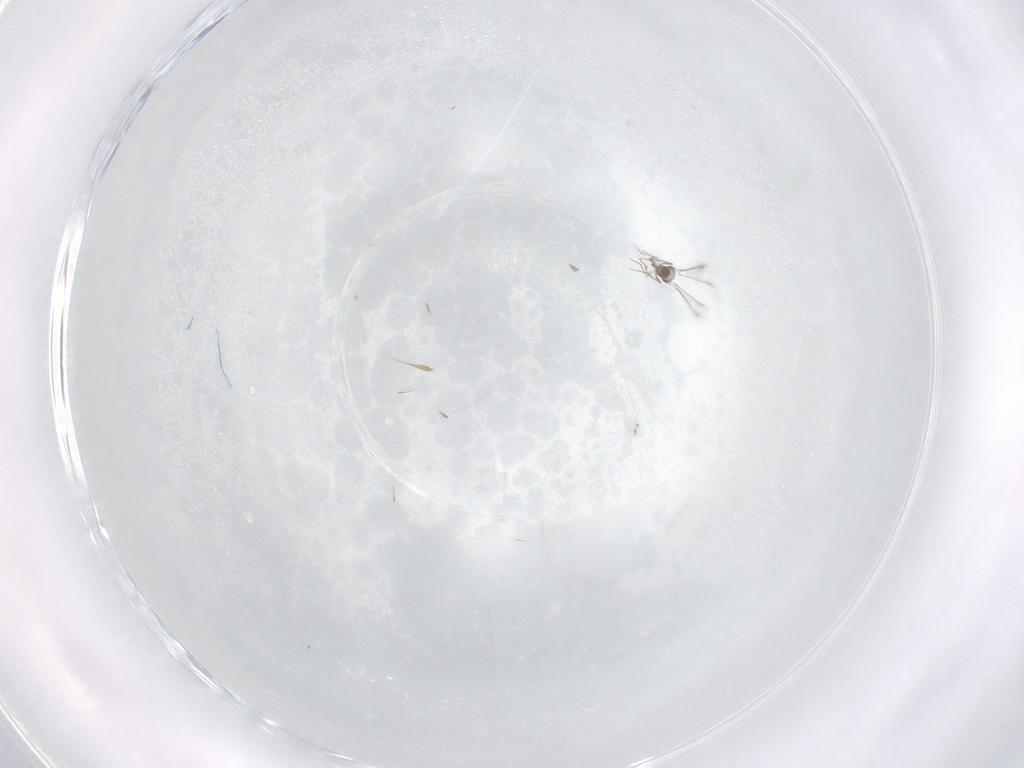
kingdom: Animalia
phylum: Arthropoda
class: Insecta
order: Hymenoptera
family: Mymaridae
